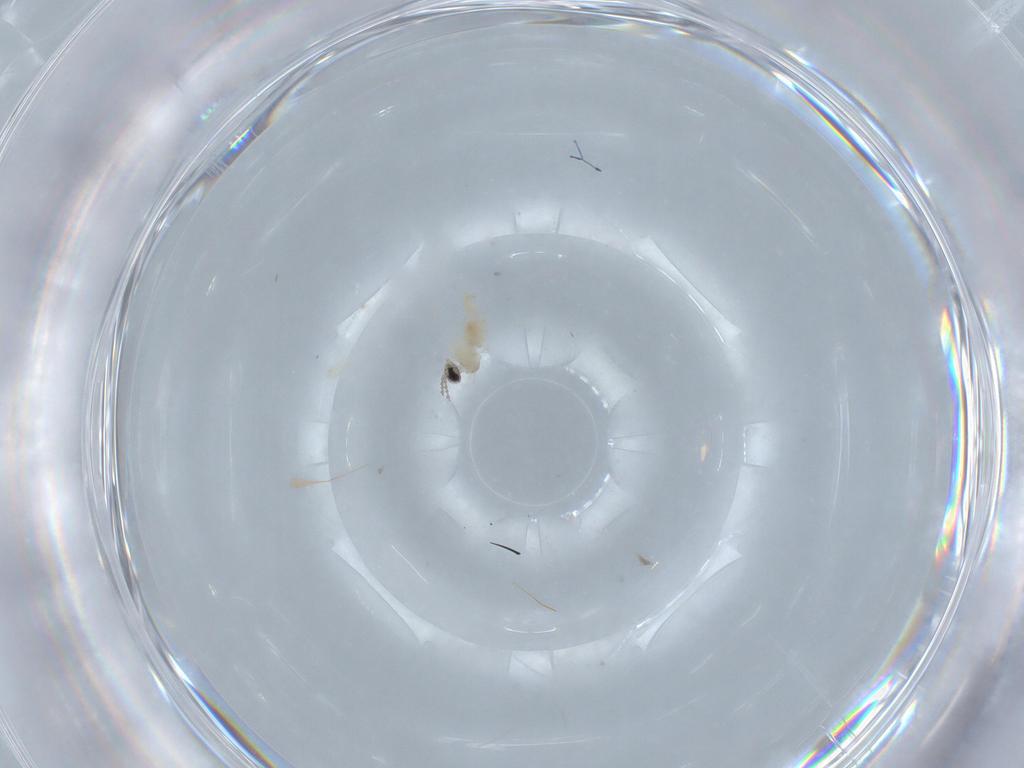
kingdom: Animalia
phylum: Arthropoda
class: Insecta
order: Diptera
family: Cecidomyiidae
